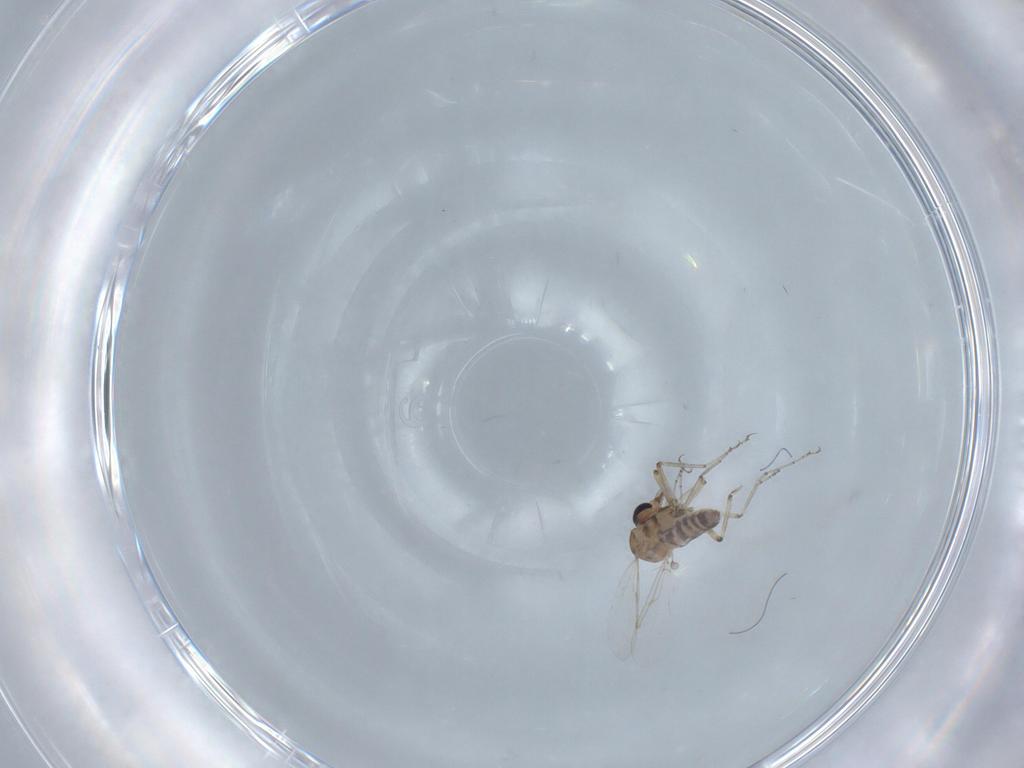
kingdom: Animalia
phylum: Arthropoda
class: Insecta
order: Diptera
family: Ceratopogonidae
